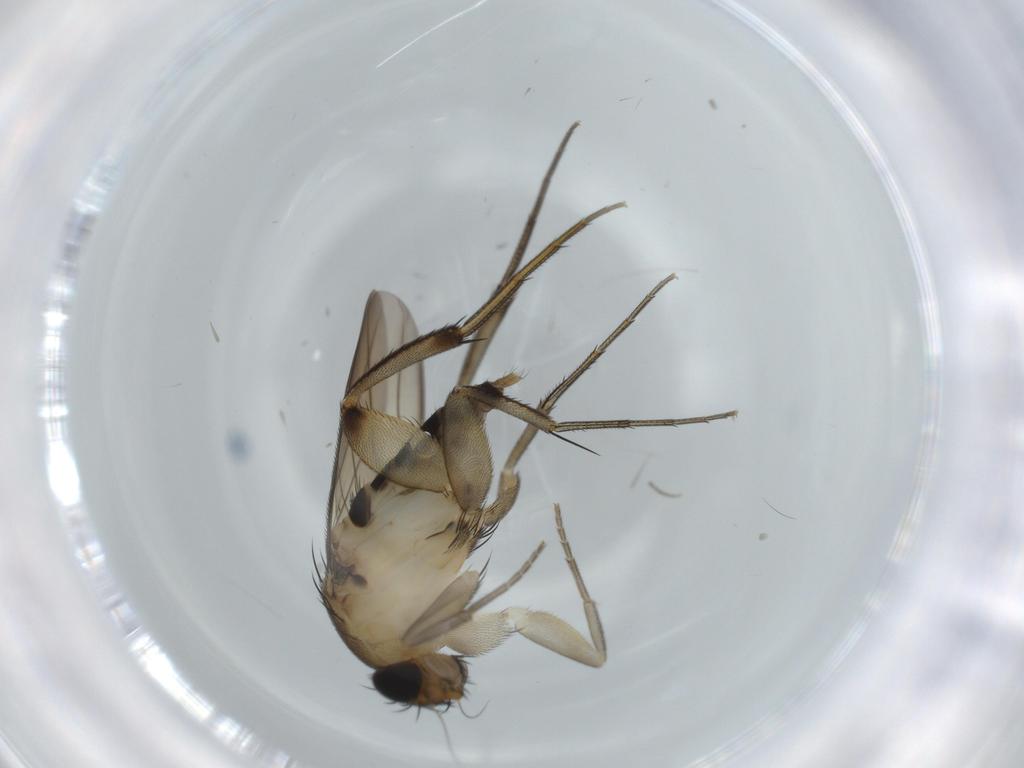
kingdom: Animalia
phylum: Arthropoda
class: Insecta
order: Diptera
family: Phoridae
